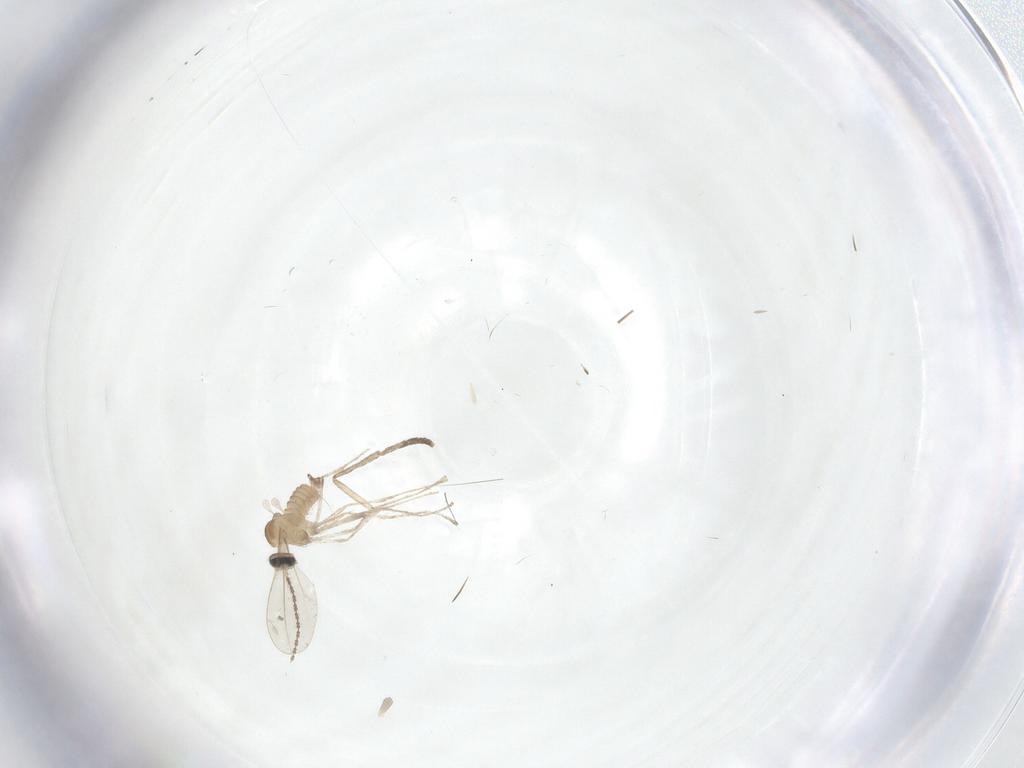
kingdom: Animalia
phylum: Arthropoda
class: Insecta
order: Diptera
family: Cecidomyiidae
